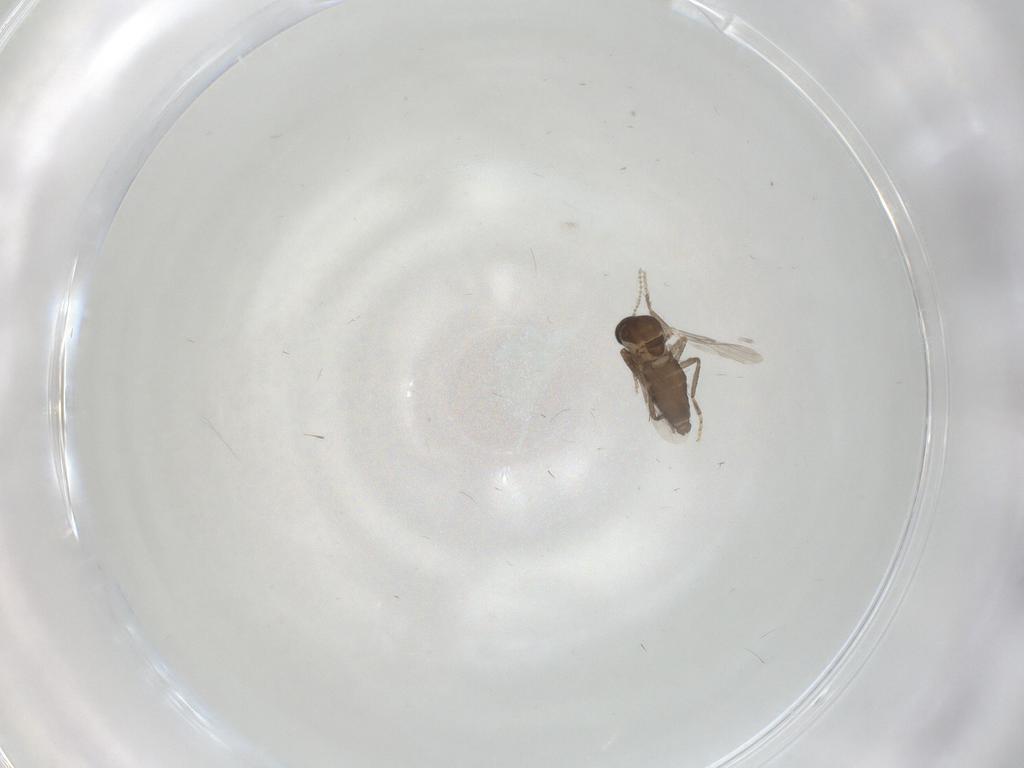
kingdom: Animalia
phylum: Arthropoda
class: Insecta
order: Diptera
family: Ceratopogonidae
